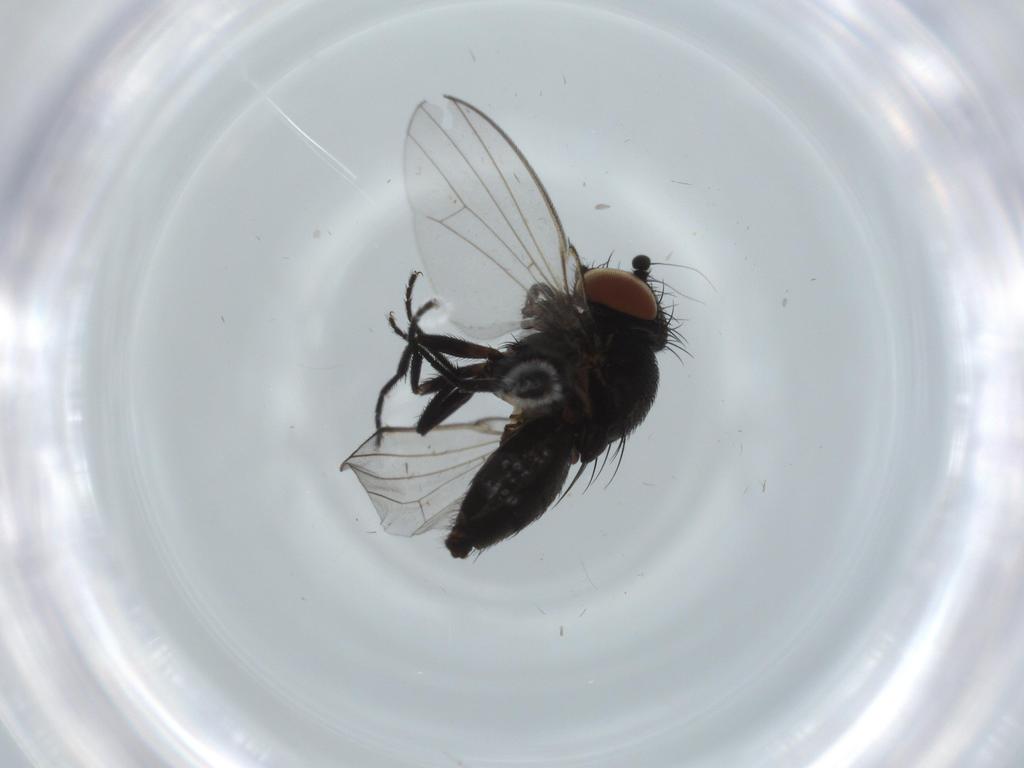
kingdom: Animalia
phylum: Arthropoda
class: Insecta
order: Diptera
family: Milichiidae
